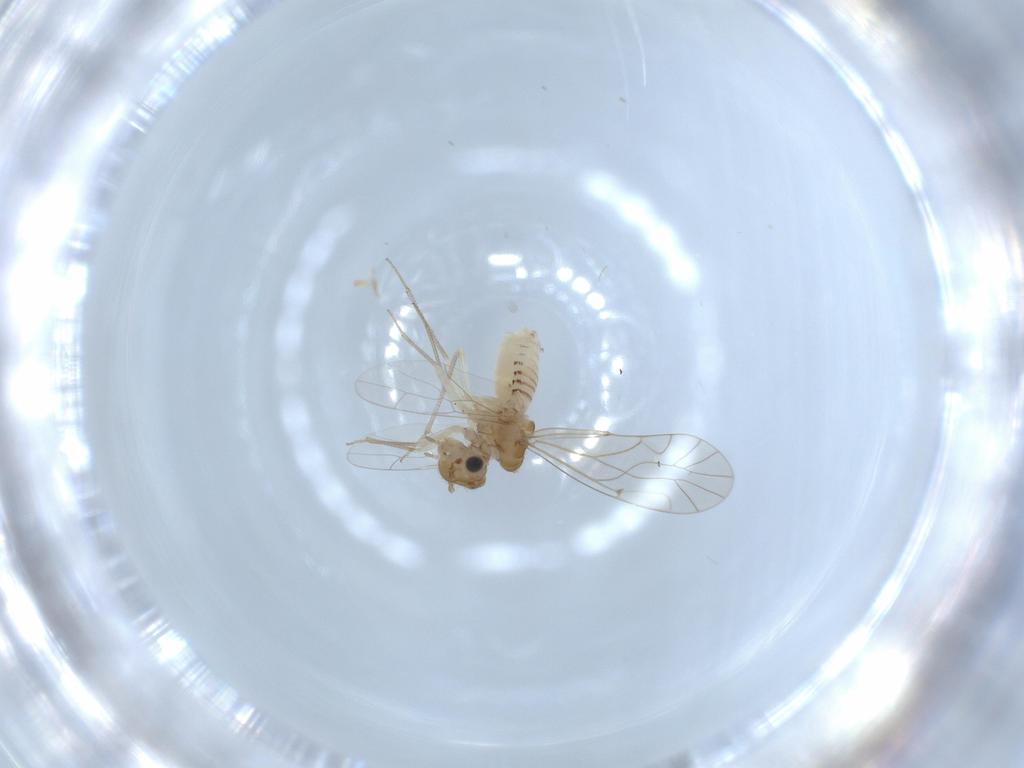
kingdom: Animalia
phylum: Arthropoda
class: Insecta
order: Psocodea
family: Lachesillidae
